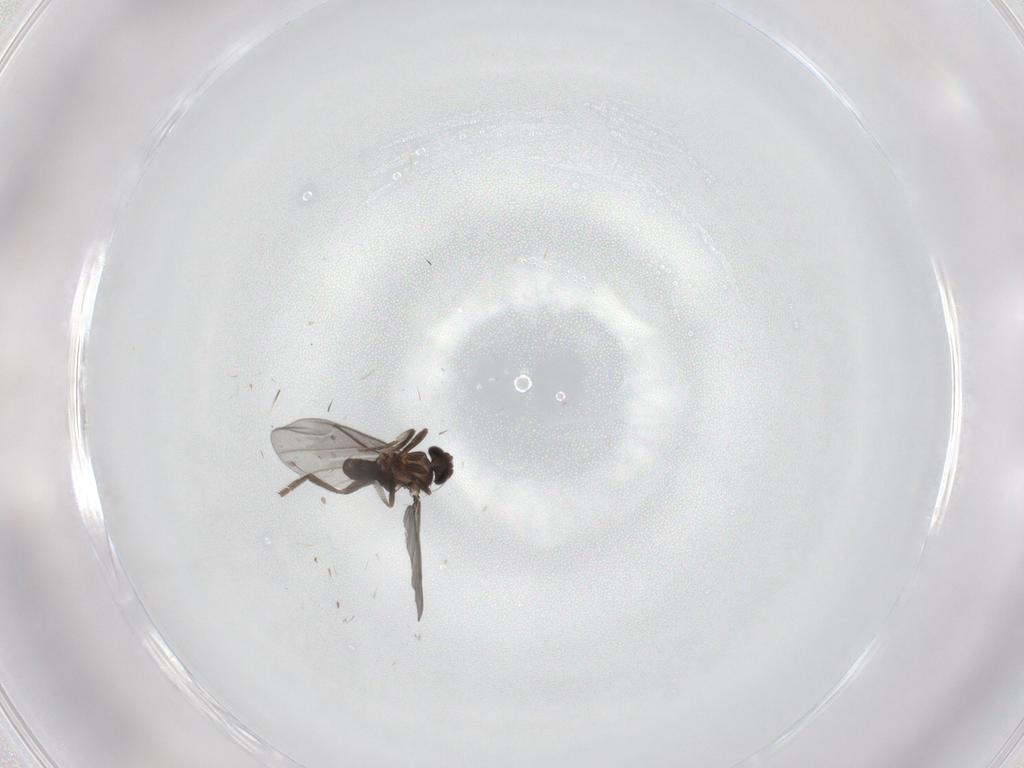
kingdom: Animalia
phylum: Arthropoda
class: Insecta
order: Diptera
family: Phoridae
